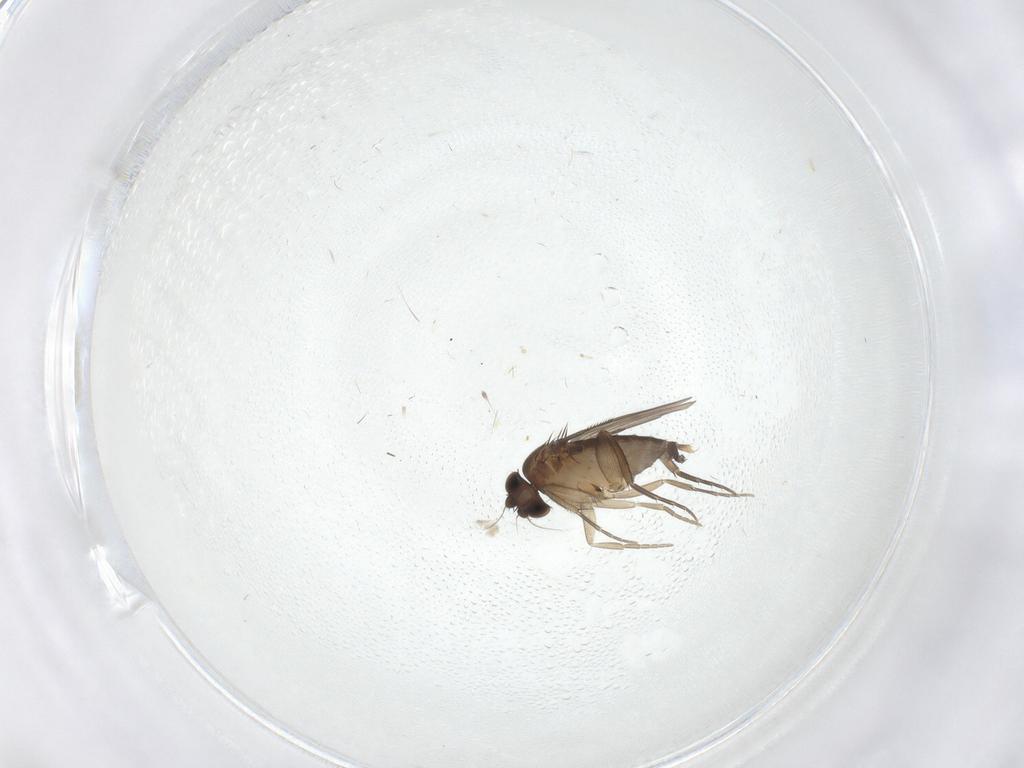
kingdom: Animalia
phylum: Arthropoda
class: Insecta
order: Diptera
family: Phoridae
